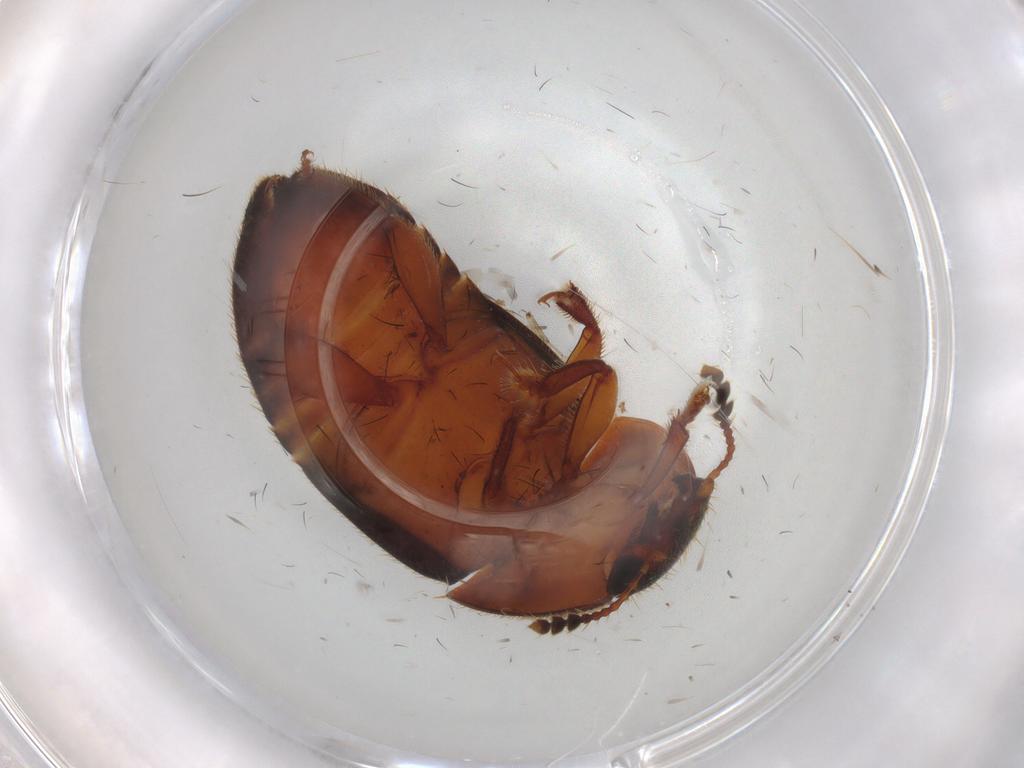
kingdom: Animalia
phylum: Arthropoda
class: Insecta
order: Coleoptera
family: Nitidulidae
